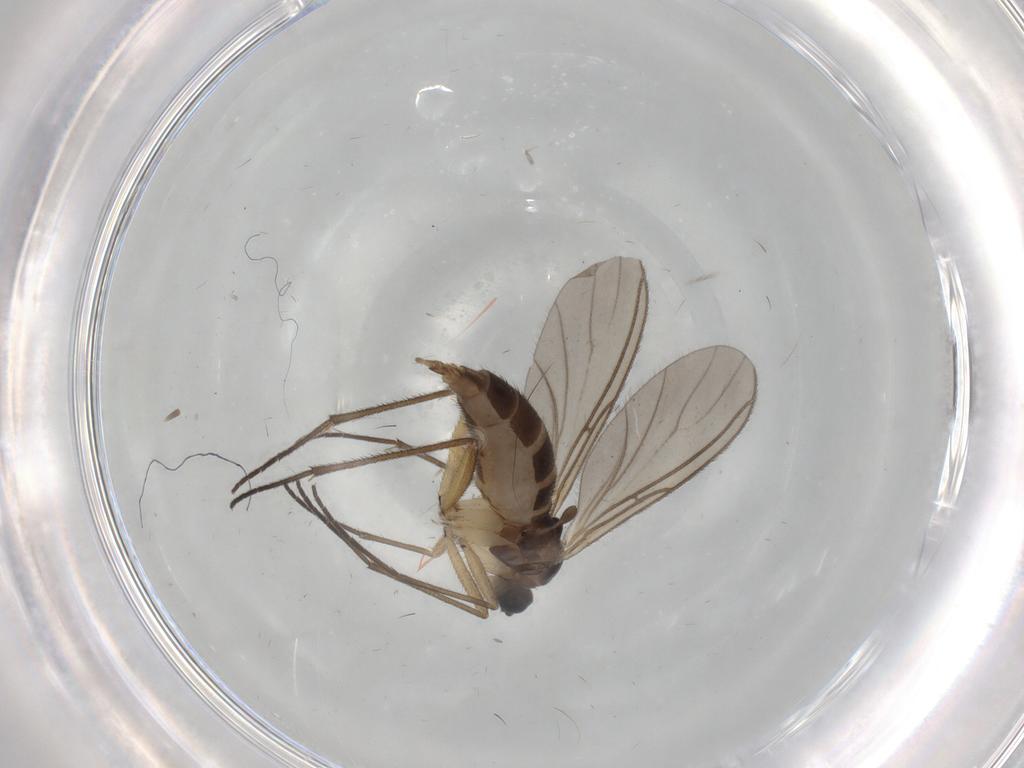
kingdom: Animalia
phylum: Arthropoda
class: Insecta
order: Diptera
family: Sciaridae
